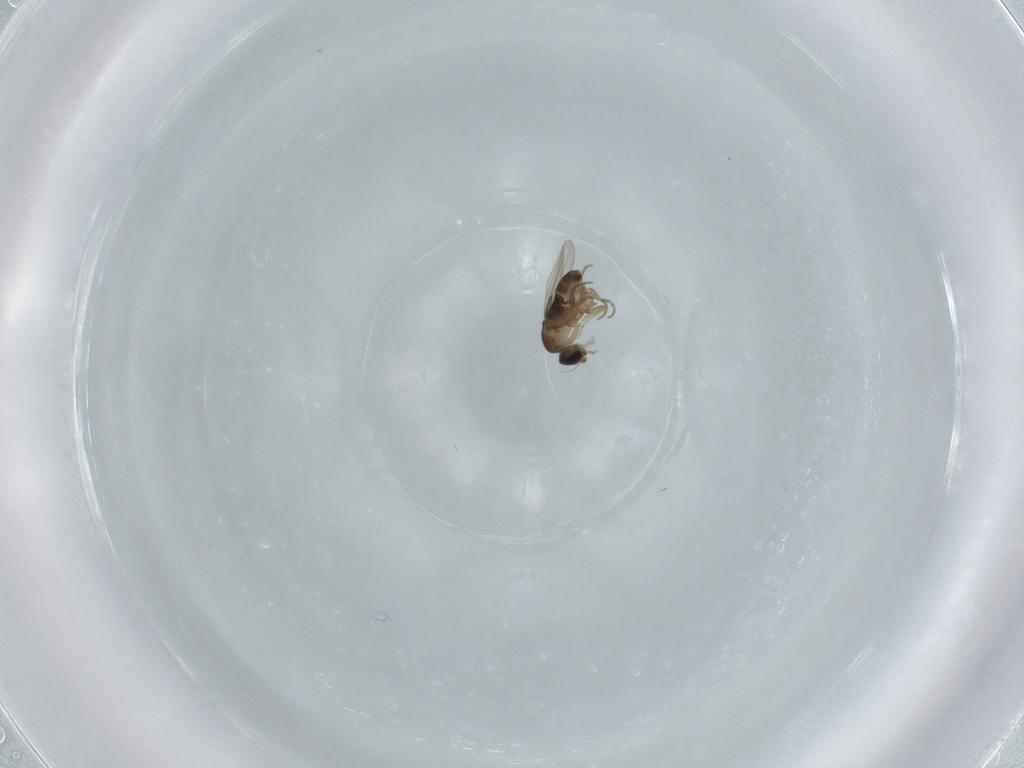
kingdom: Animalia
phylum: Arthropoda
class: Insecta
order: Diptera
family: Phoridae
